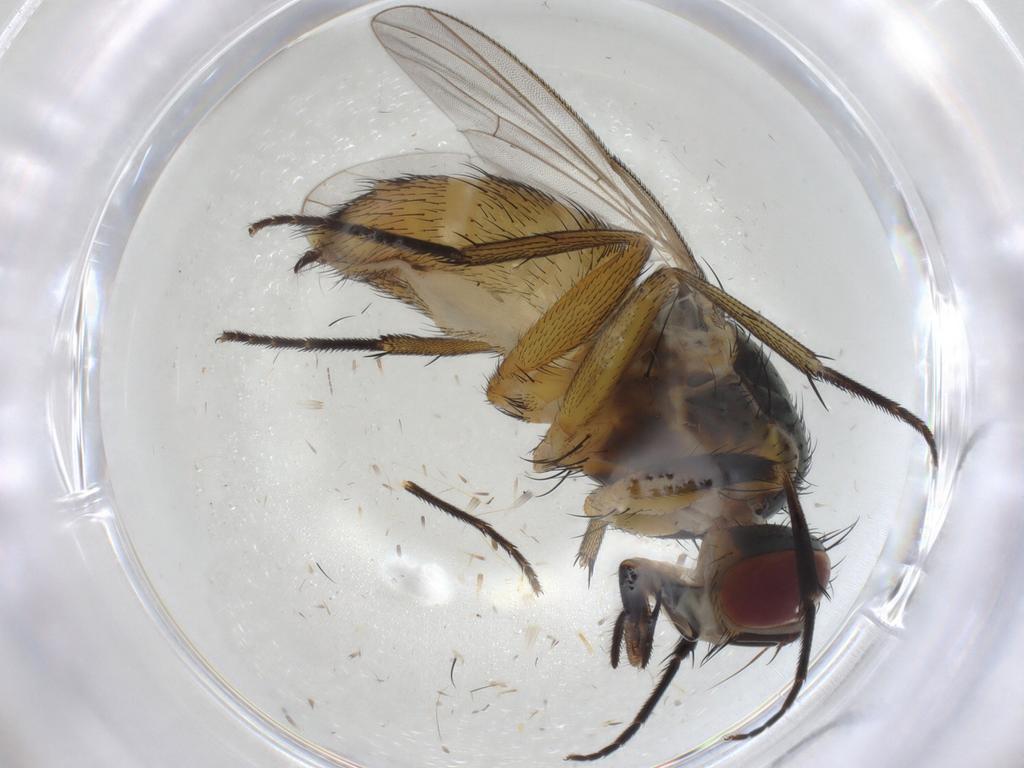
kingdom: Animalia
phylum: Arthropoda
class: Insecta
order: Diptera
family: Muscidae
